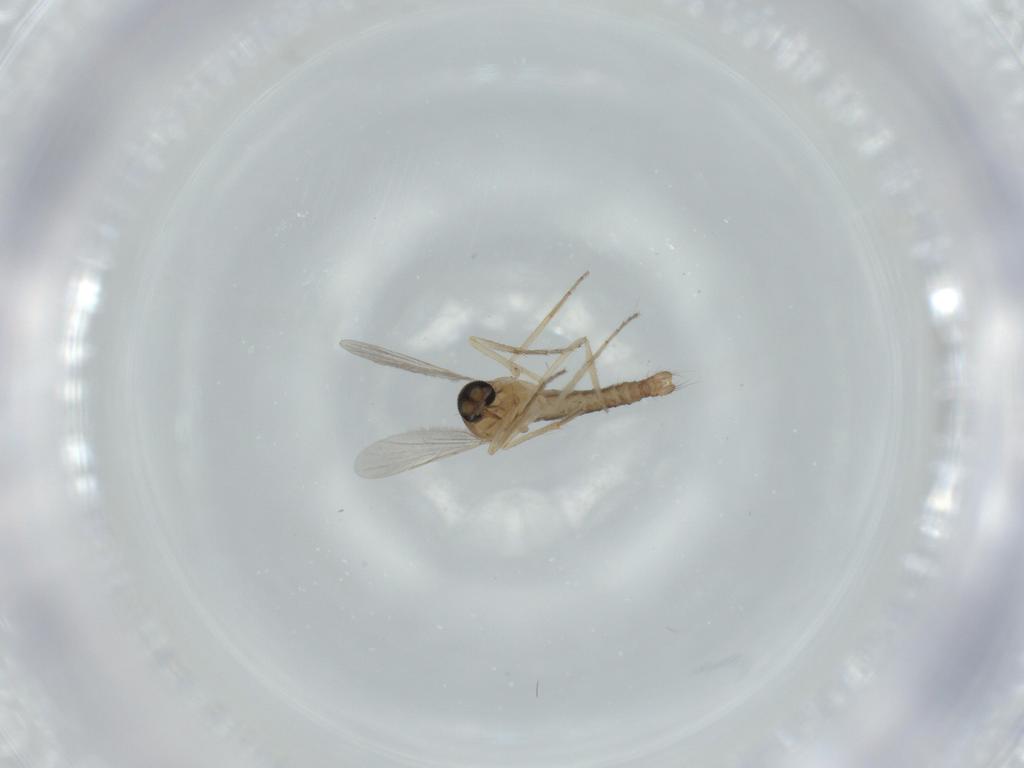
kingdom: Animalia
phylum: Arthropoda
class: Insecta
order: Diptera
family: Ceratopogonidae
